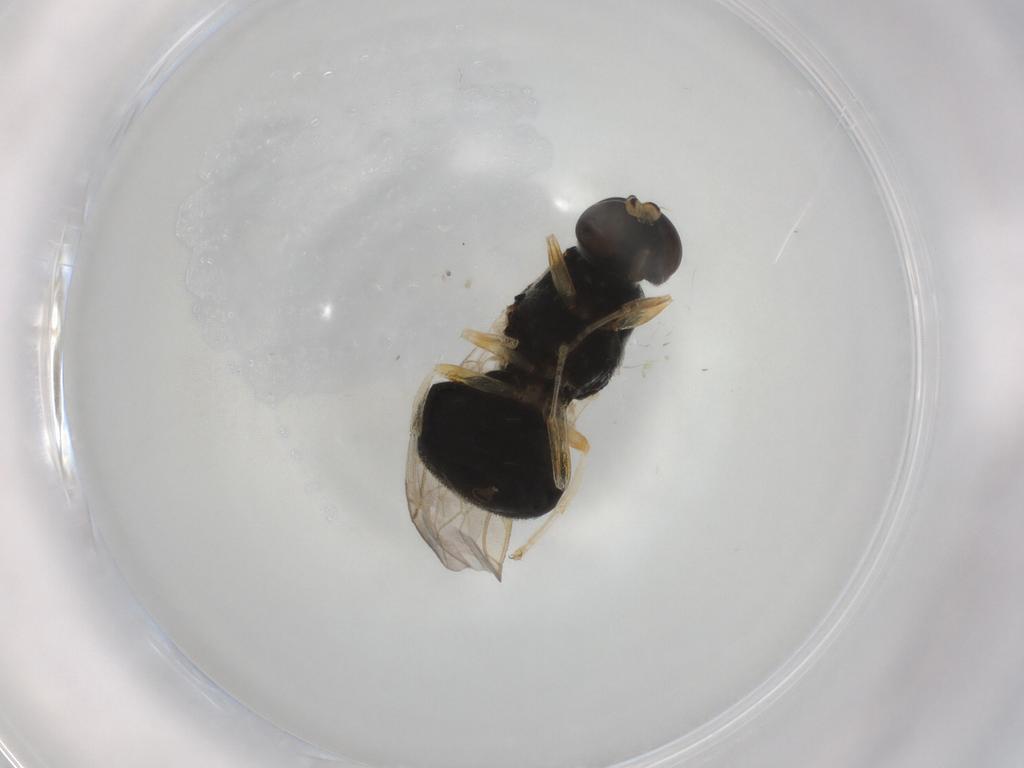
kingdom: Animalia
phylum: Arthropoda
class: Insecta
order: Diptera
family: Stratiomyidae
